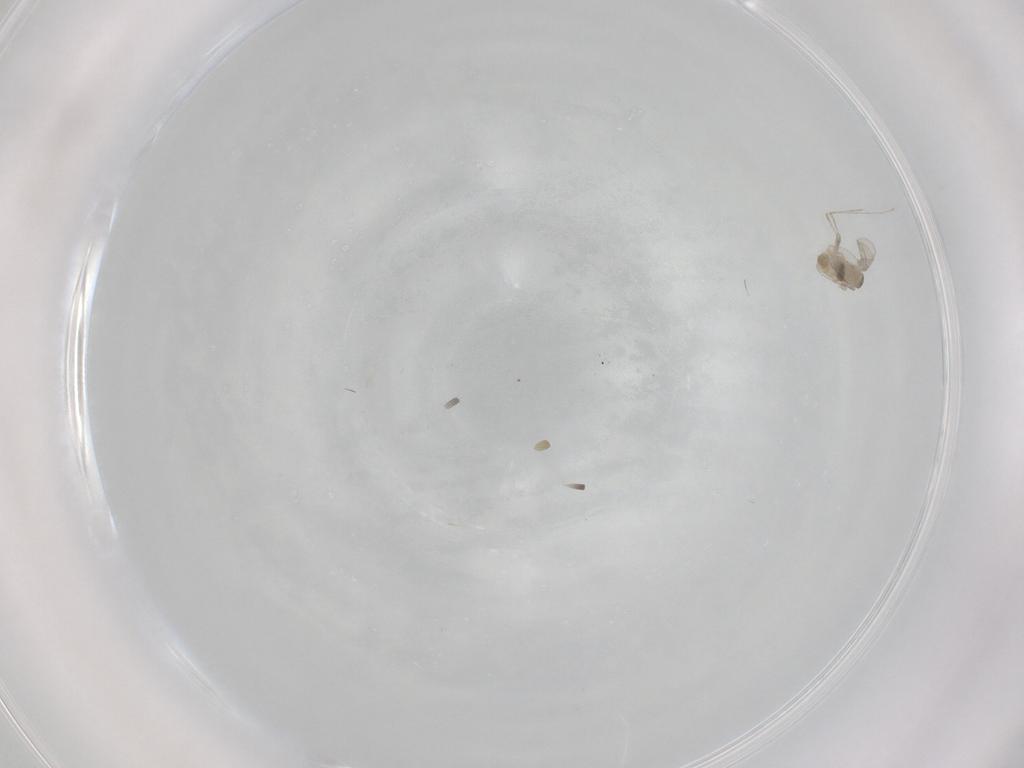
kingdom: Animalia
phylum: Arthropoda
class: Insecta
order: Diptera
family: Cecidomyiidae
